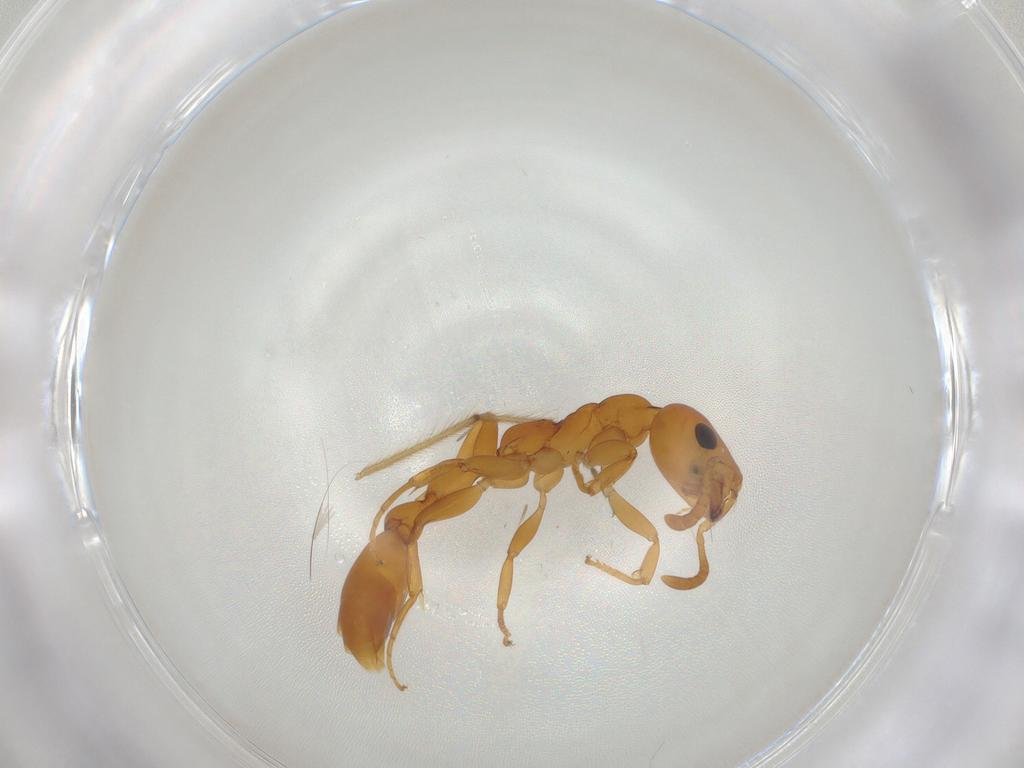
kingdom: Animalia
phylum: Arthropoda
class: Insecta
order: Hymenoptera
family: Formicidae
